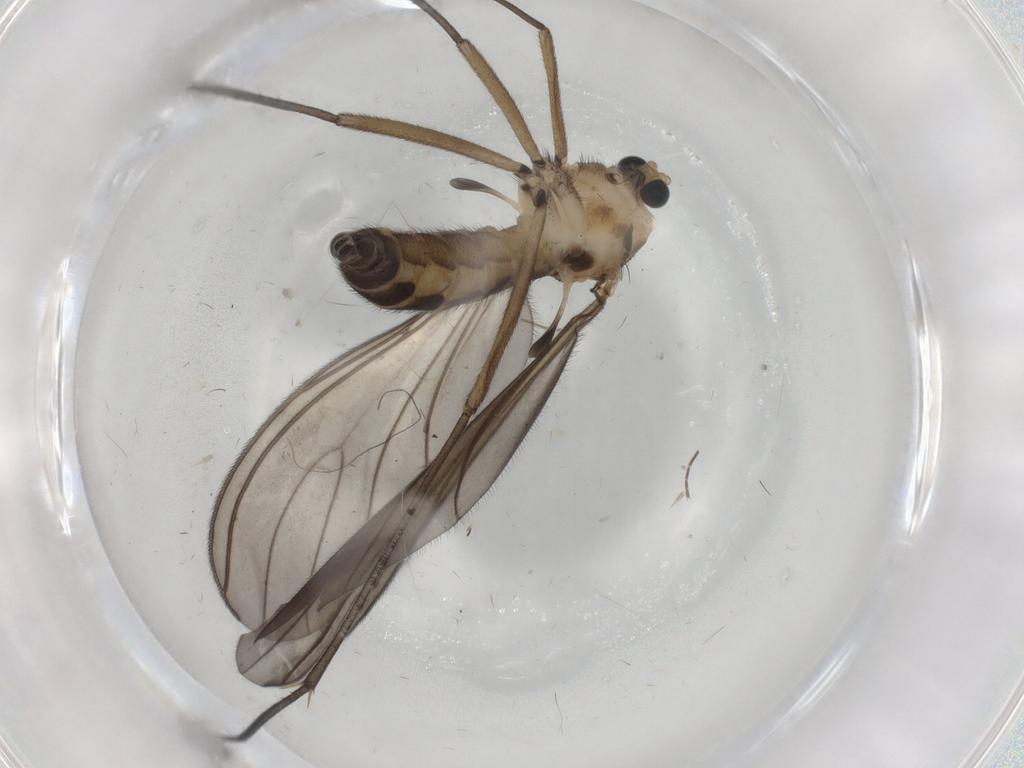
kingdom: Animalia
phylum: Arthropoda
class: Insecta
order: Diptera
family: Sciaridae
